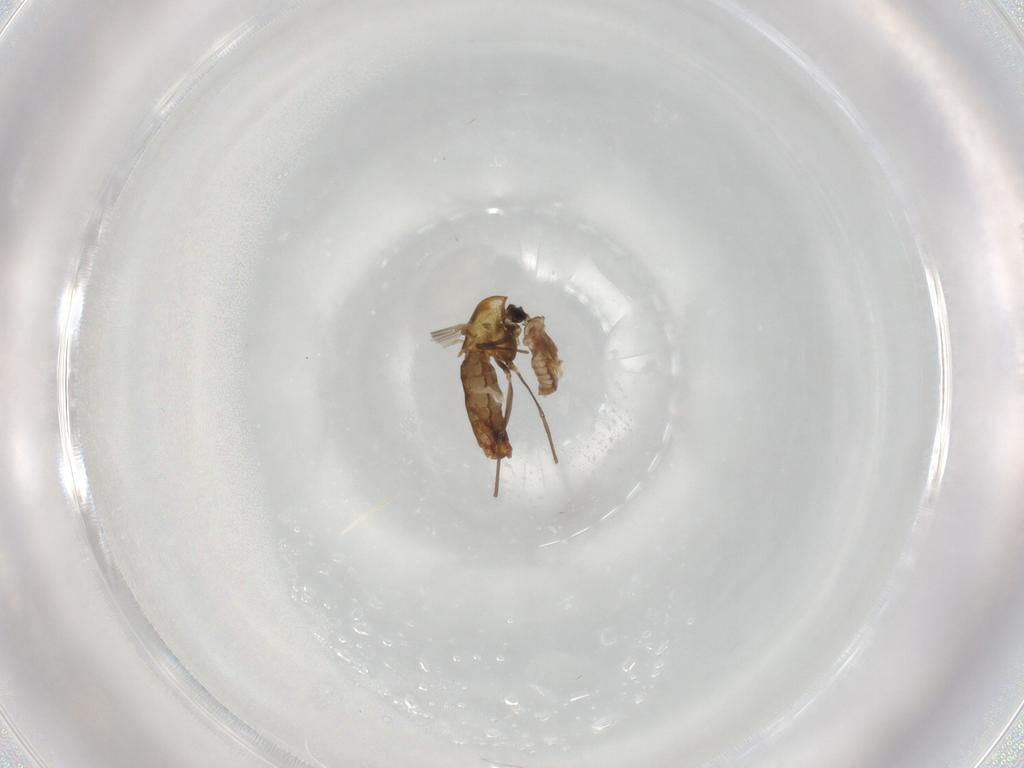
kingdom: Animalia
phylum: Arthropoda
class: Insecta
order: Diptera
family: Chironomidae
